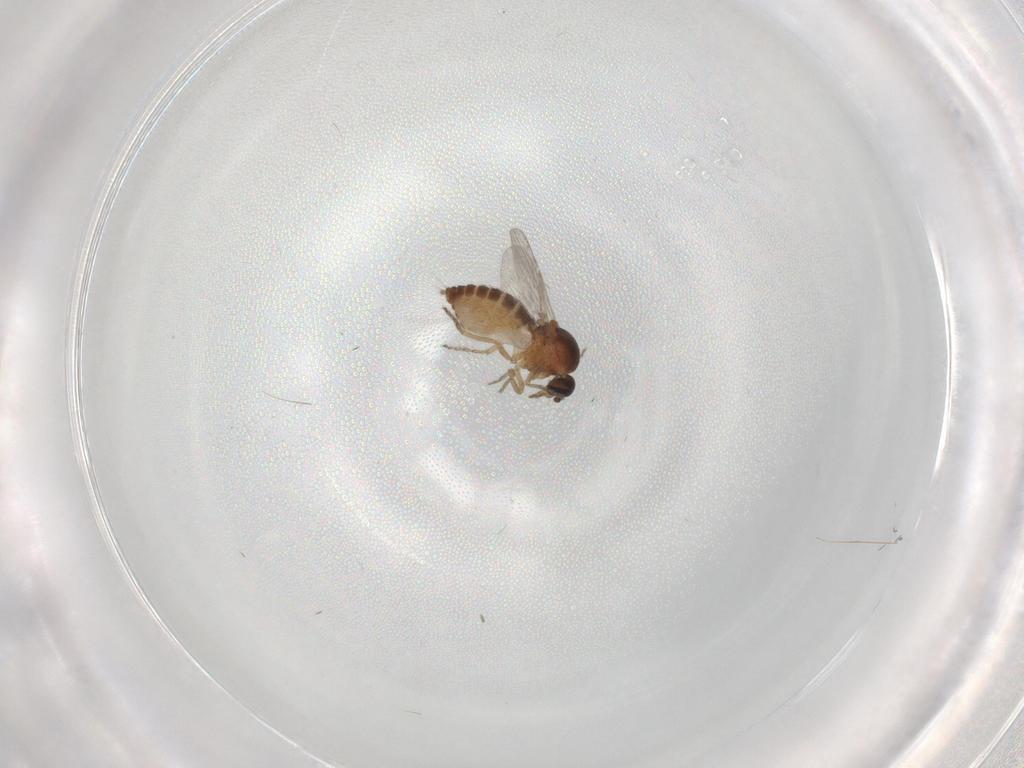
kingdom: Animalia
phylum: Arthropoda
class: Insecta
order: Diptera
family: Ceratopogonidae
